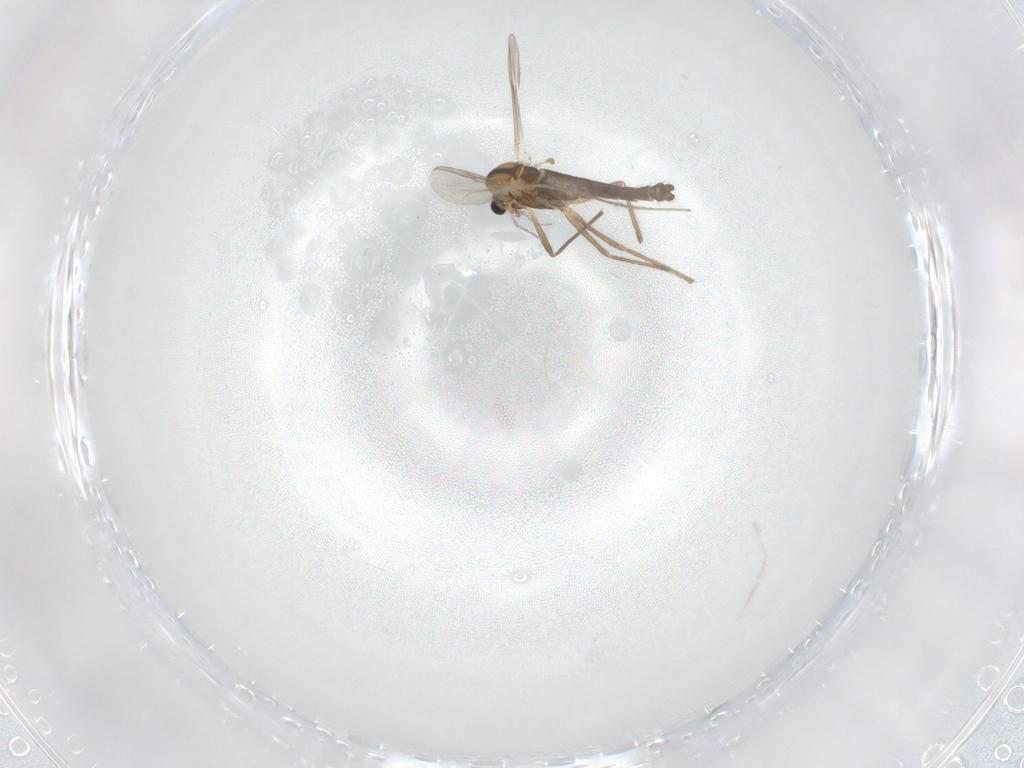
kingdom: Animalia
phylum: Arthropoda
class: Insecta
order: Diptera
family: Chironomidae
